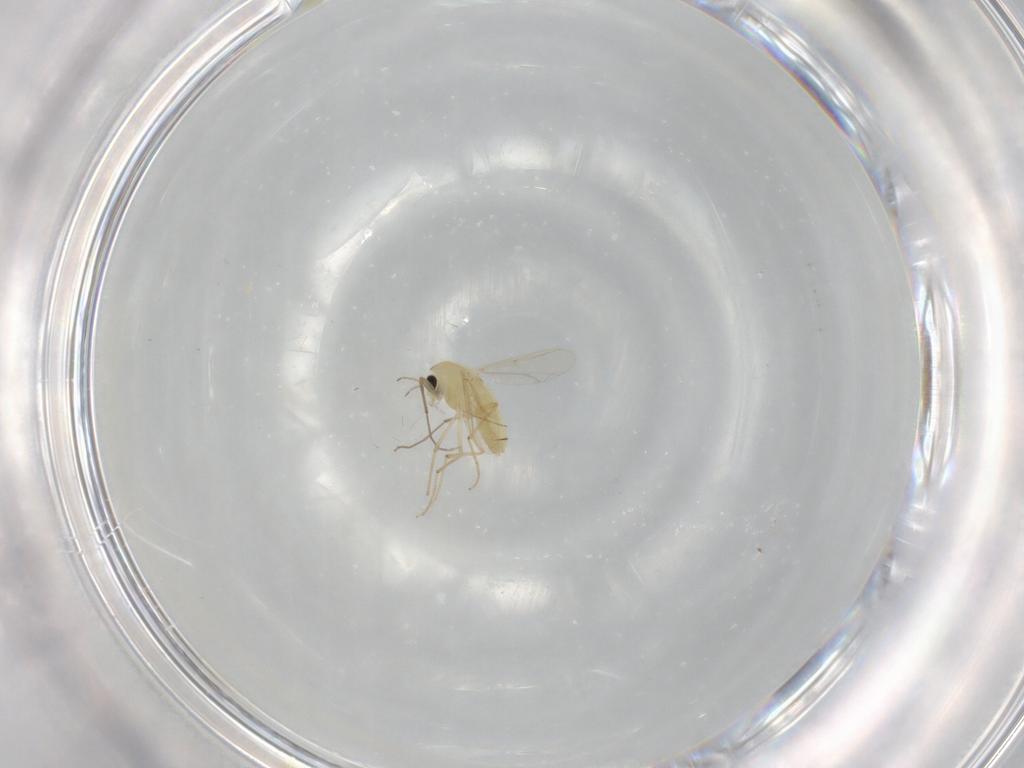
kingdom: Animalia
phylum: Arthropoda
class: Insecta
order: Diptera
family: Chironomidae
